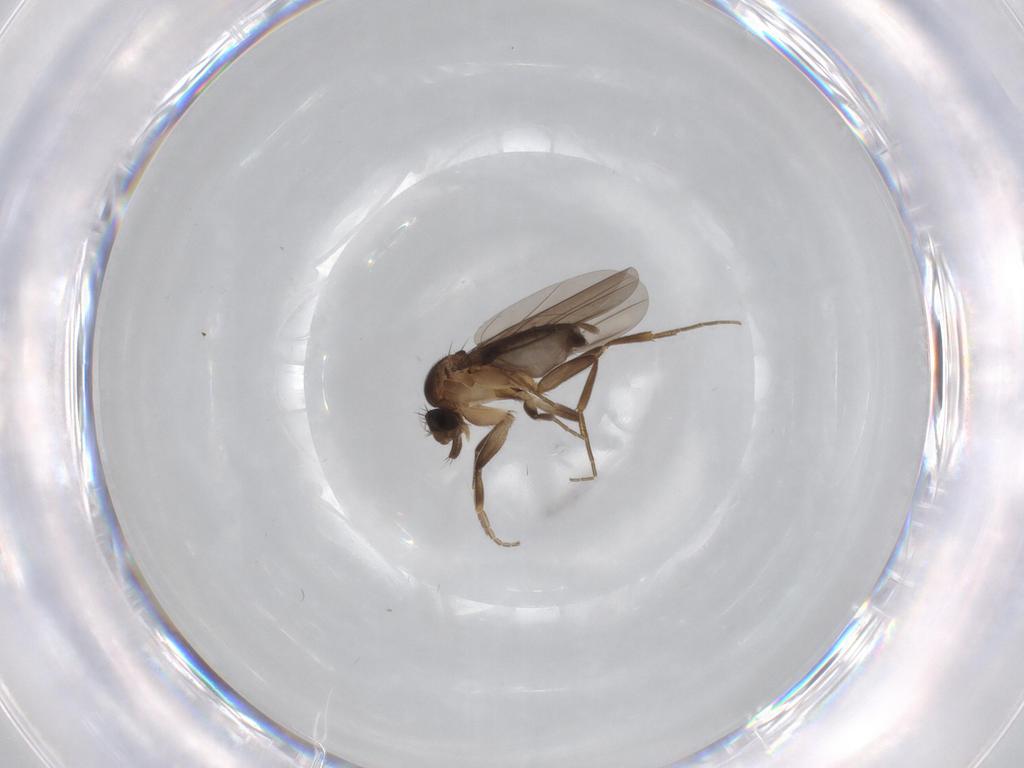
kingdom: Animalia
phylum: Arthropoda
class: Insecta
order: Diptera
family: Phoridae
